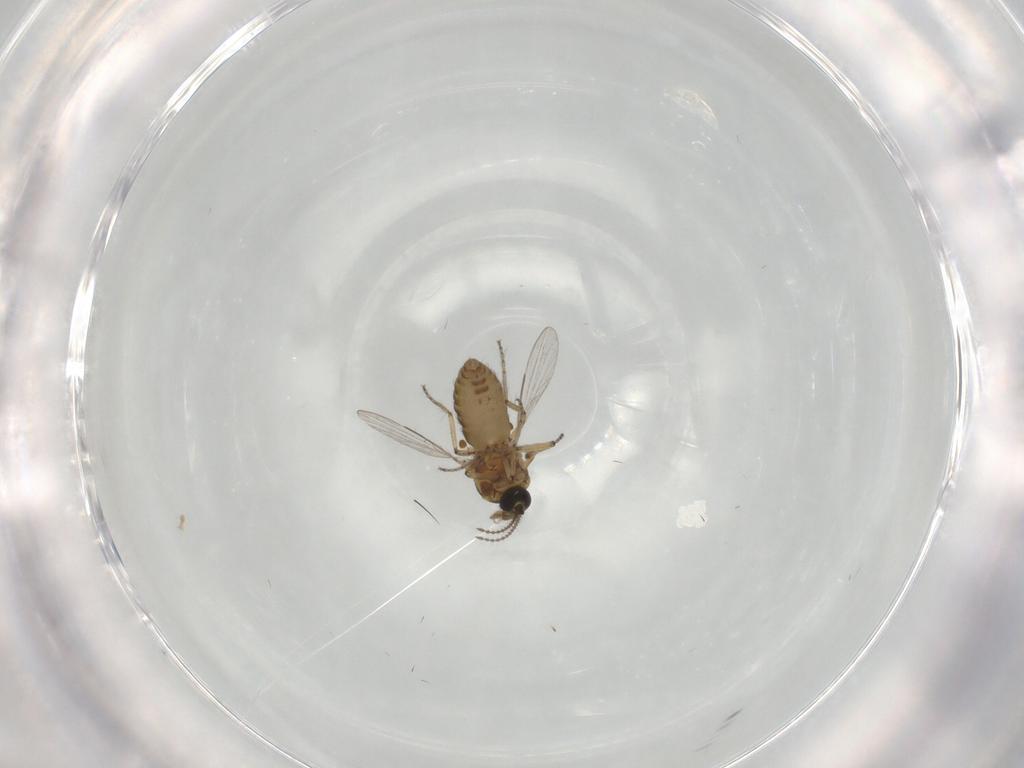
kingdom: Animalia
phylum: Arthropoda
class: Insecta
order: Diptera
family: Ceratopogonidae
